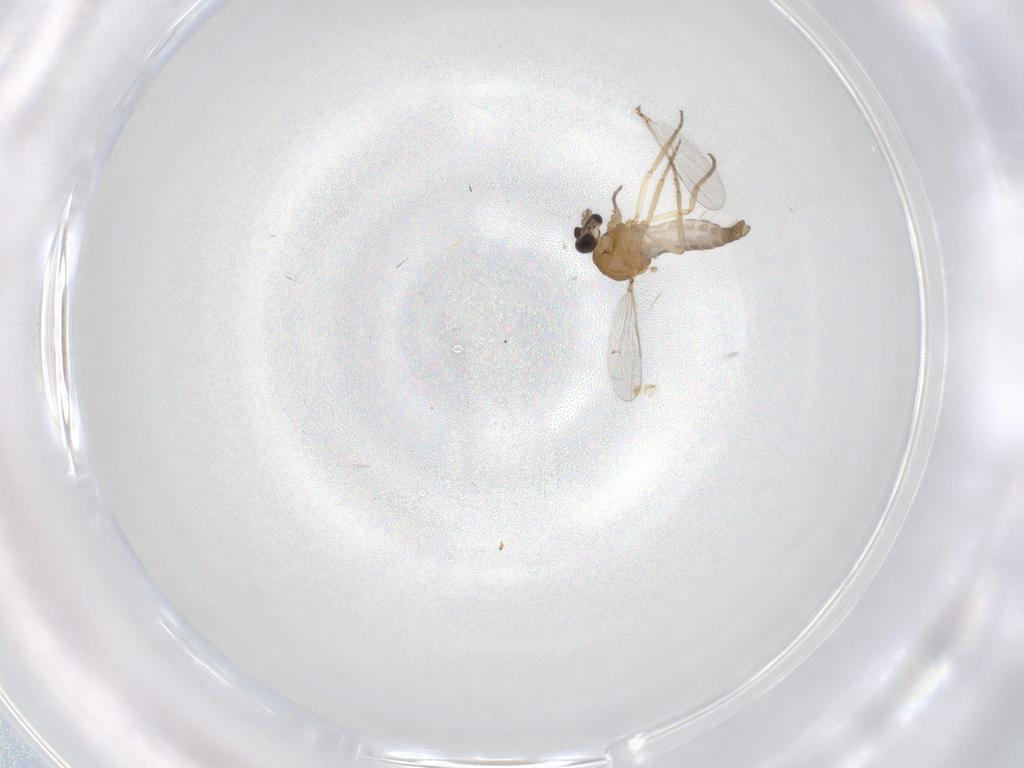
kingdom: Animalia
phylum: Arthropoda
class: Insecta
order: Diptera
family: Ceratopogonidae
